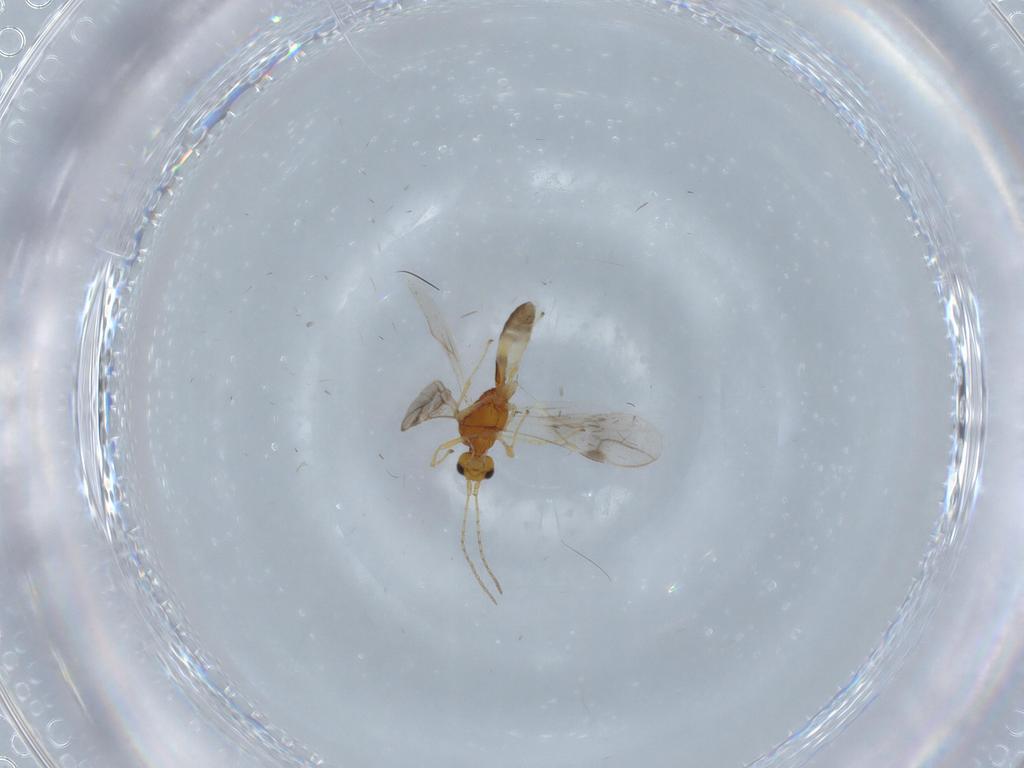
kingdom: Animalia
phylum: Arthropoda
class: Insecta
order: Hymenoptera
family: Braconidae
